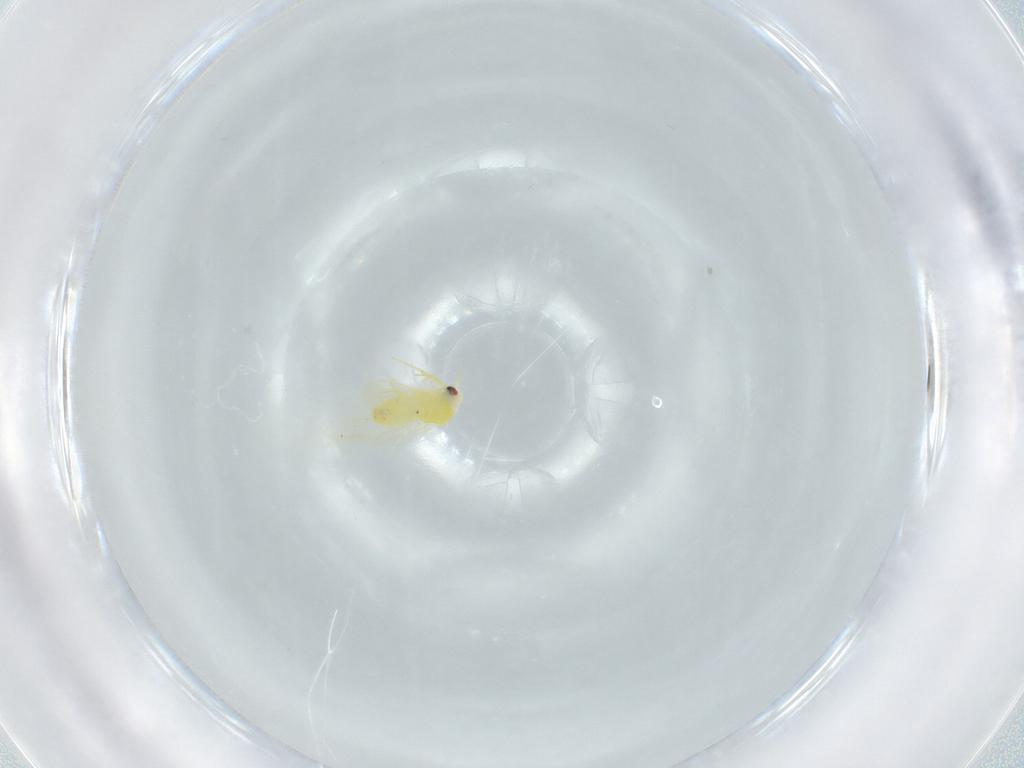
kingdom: Animalia
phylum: Arthropoda
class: Insecta
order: Hemiptera
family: Aleyrodidae
